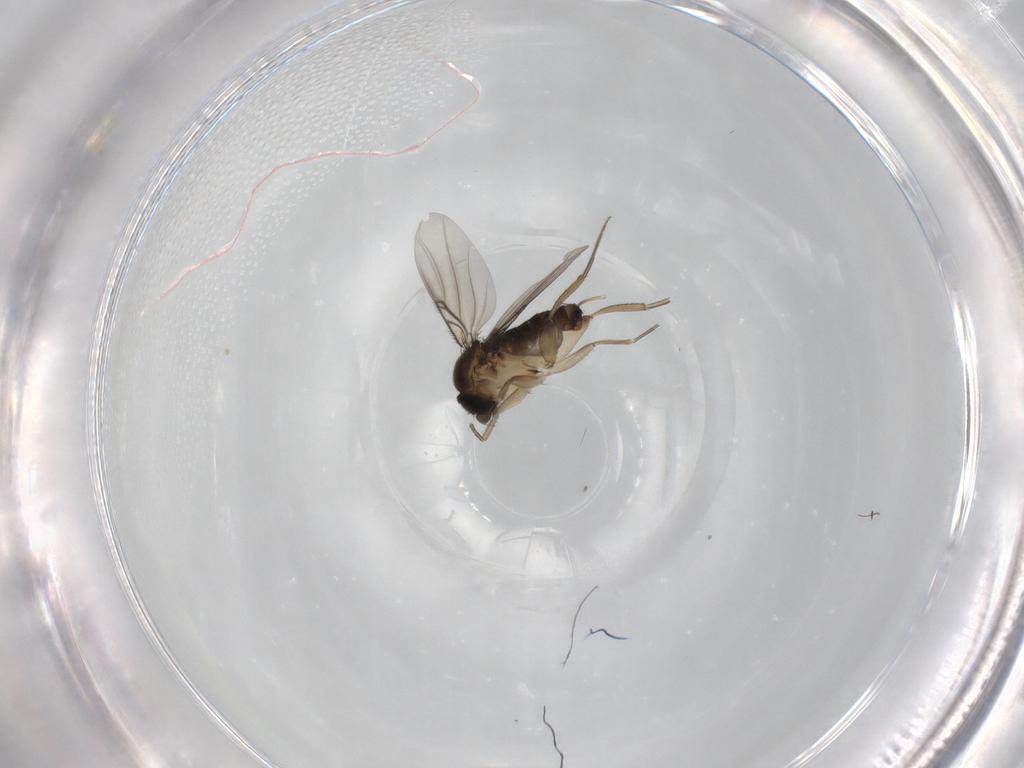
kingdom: Animalia
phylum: Arthropoda
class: Insecta
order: Diptera
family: Phoridae
